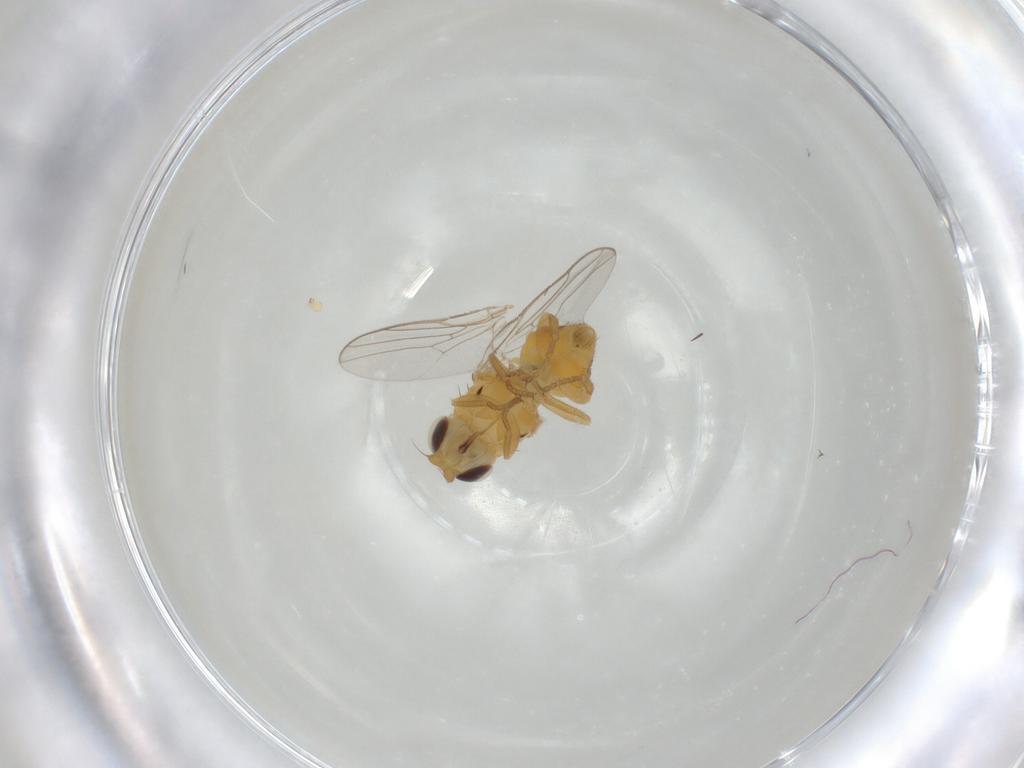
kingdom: Animalia
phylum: Arthropoda
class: Insecta
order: Diptera
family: Chloropidae
